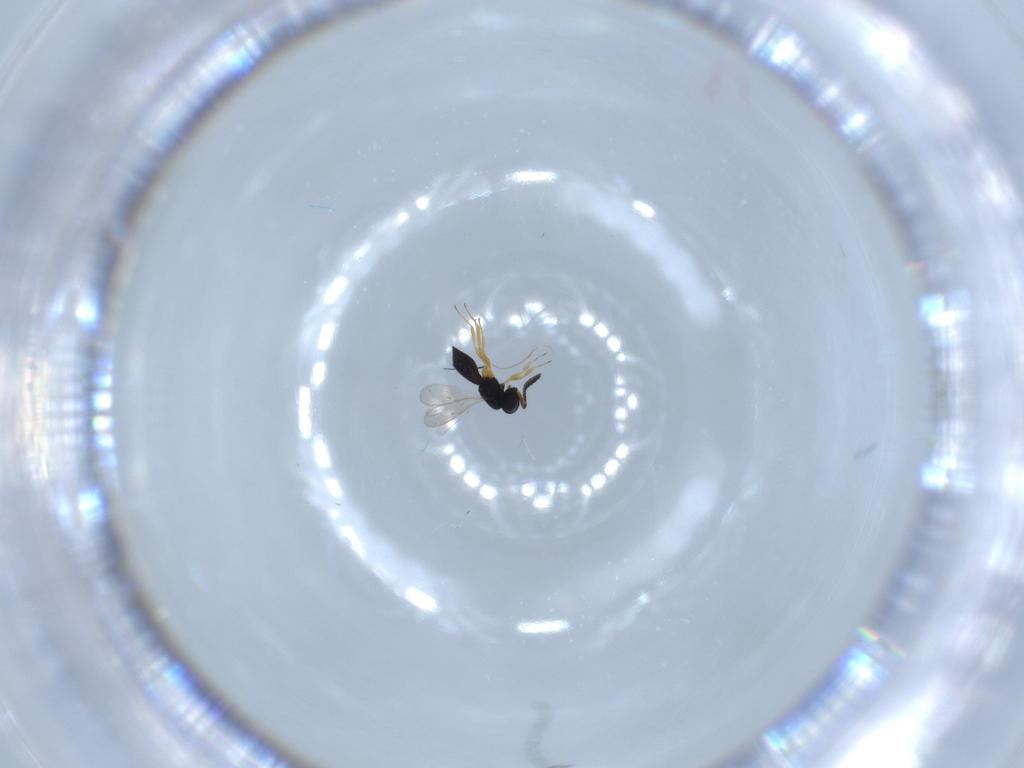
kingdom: Animalia
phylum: Arthropoda
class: Insecta
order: Hymenoptera
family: Scelionidae
